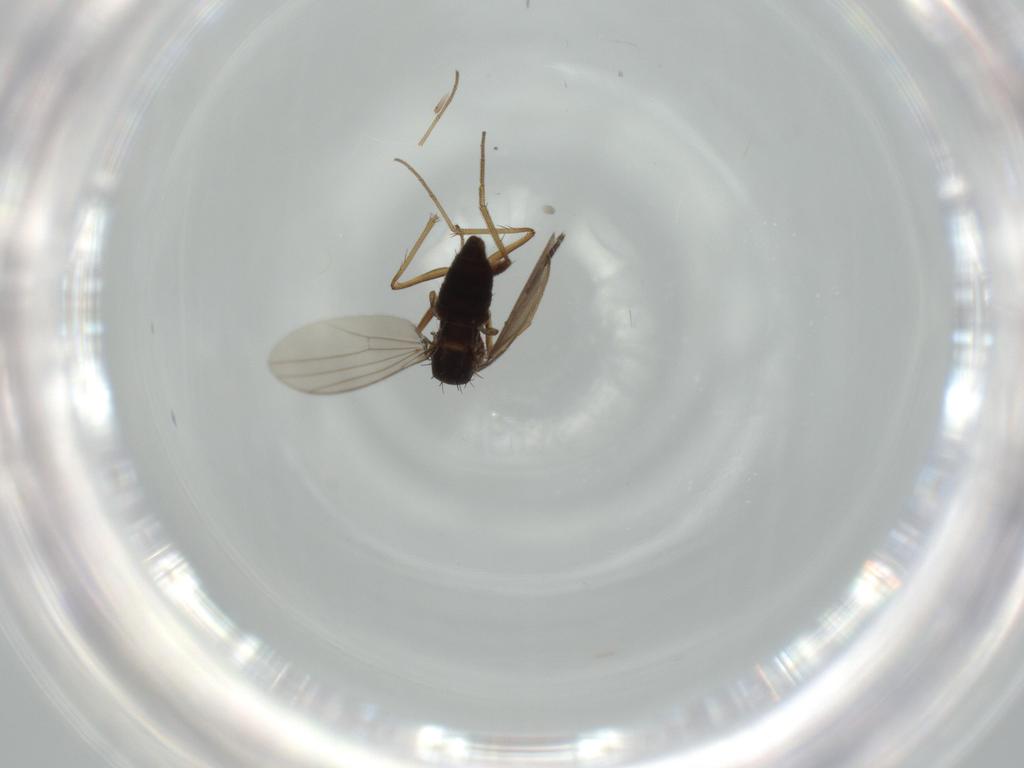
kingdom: Animalia
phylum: Arthropoda
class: Insecta
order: Diptera
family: Dolichopodidae
